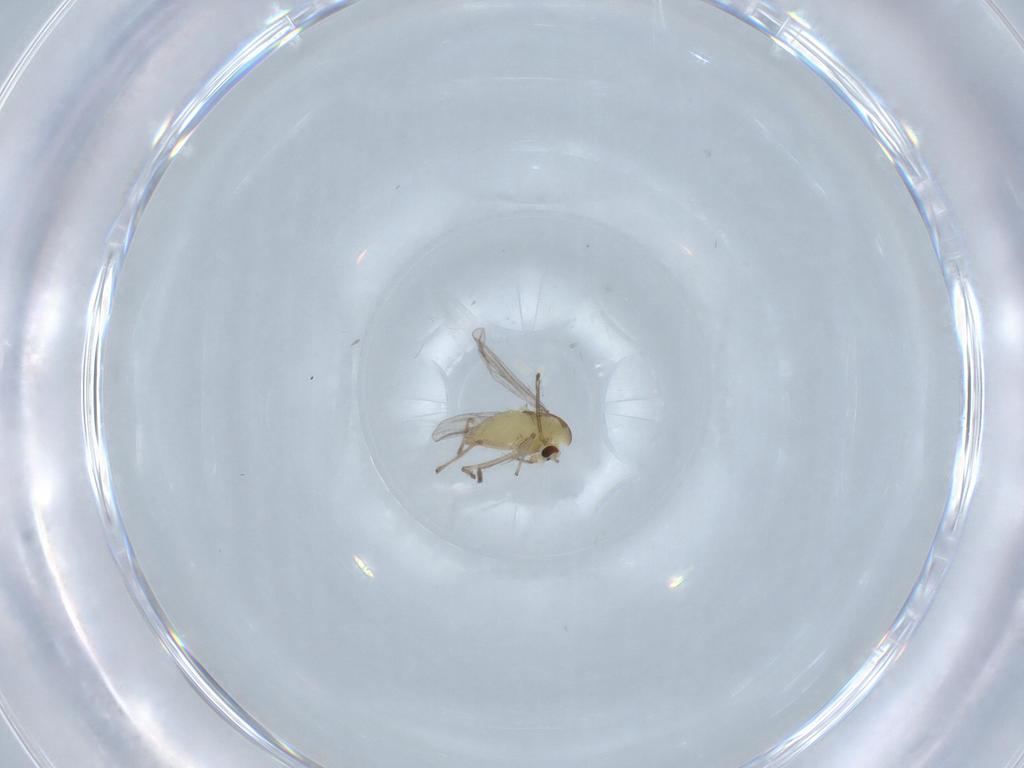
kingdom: Animalia
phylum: Arthropoda
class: Insecta
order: Diptera
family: Chironomidae
